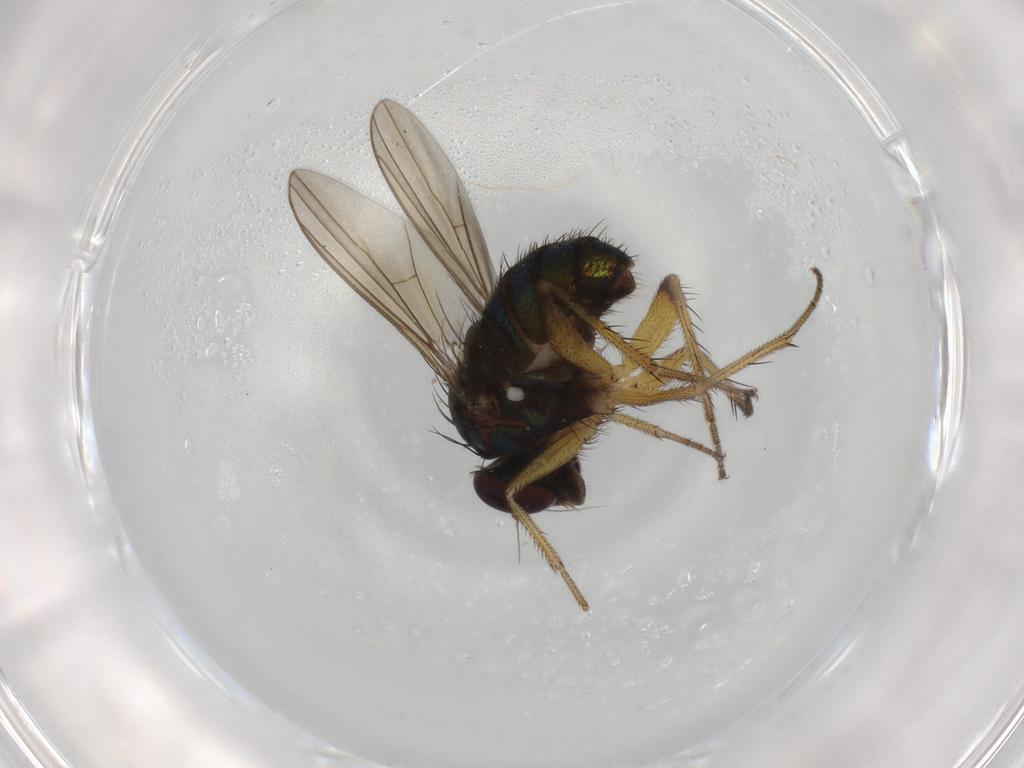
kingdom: Animalia
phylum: Arthropoda
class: Insecta
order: Diptera
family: Dolichopodidae
